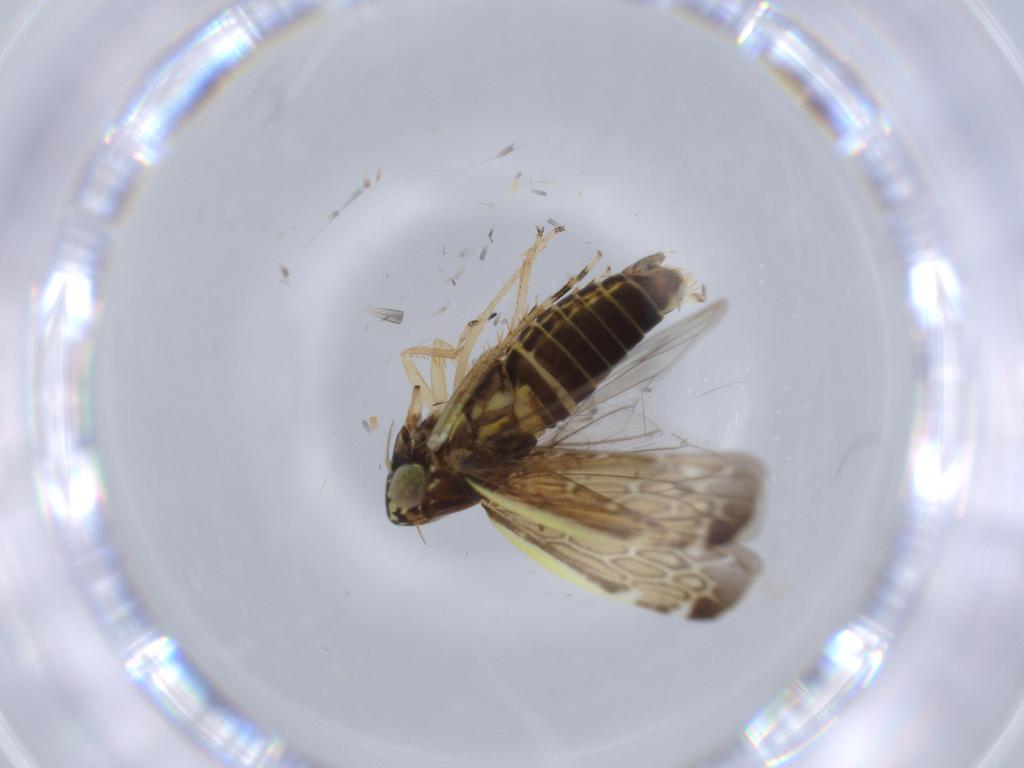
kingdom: Animalia
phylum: Arthropoda
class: Insecta
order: Hemiptera
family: Cicadellidae
